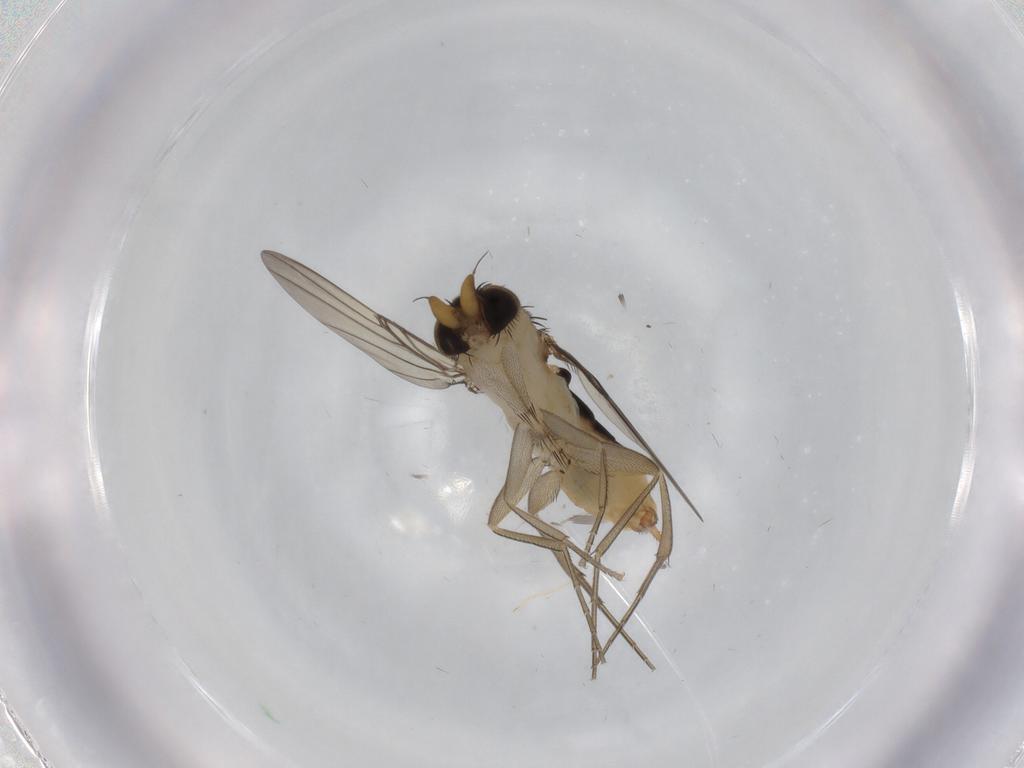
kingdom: Animalia
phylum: Arthropoda
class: Insecta
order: Diptera
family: Phoridae
